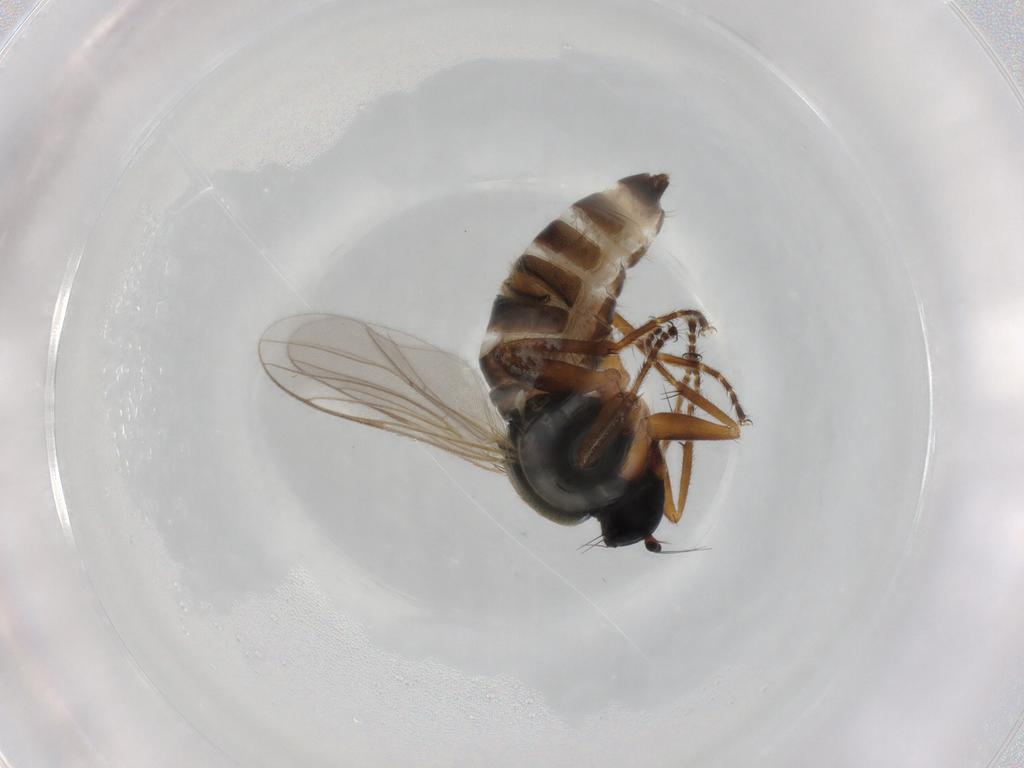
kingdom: Animalia
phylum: Arthropoda
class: Insecta
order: Diptera
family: Hybotidae
